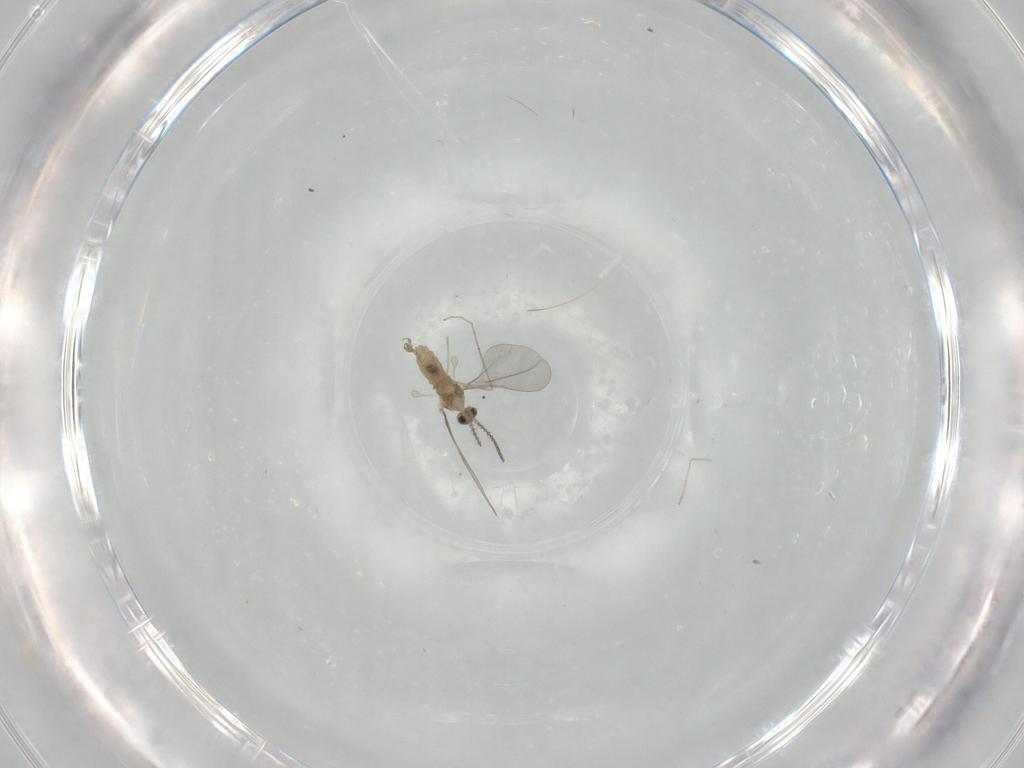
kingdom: Animalia
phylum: Arthropoda
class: Insecta
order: Diptera
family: Cecidomyiidae
